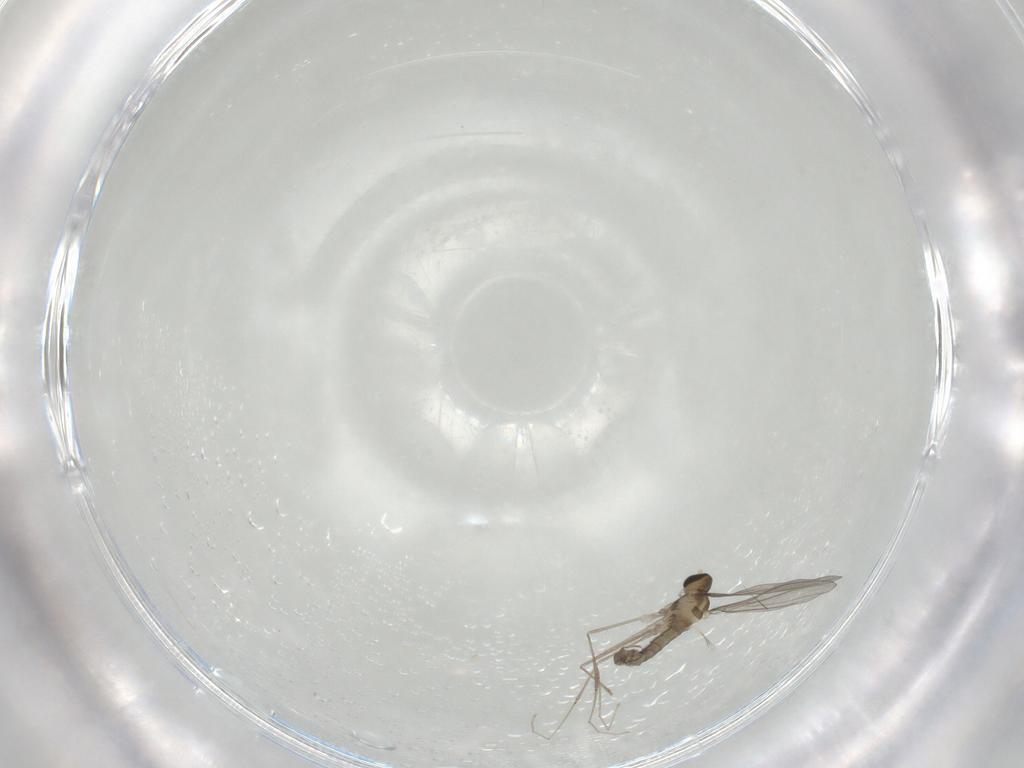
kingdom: Animalia
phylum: Arthropoda
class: Insecta
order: Diptera
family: Cecidomyiidae
